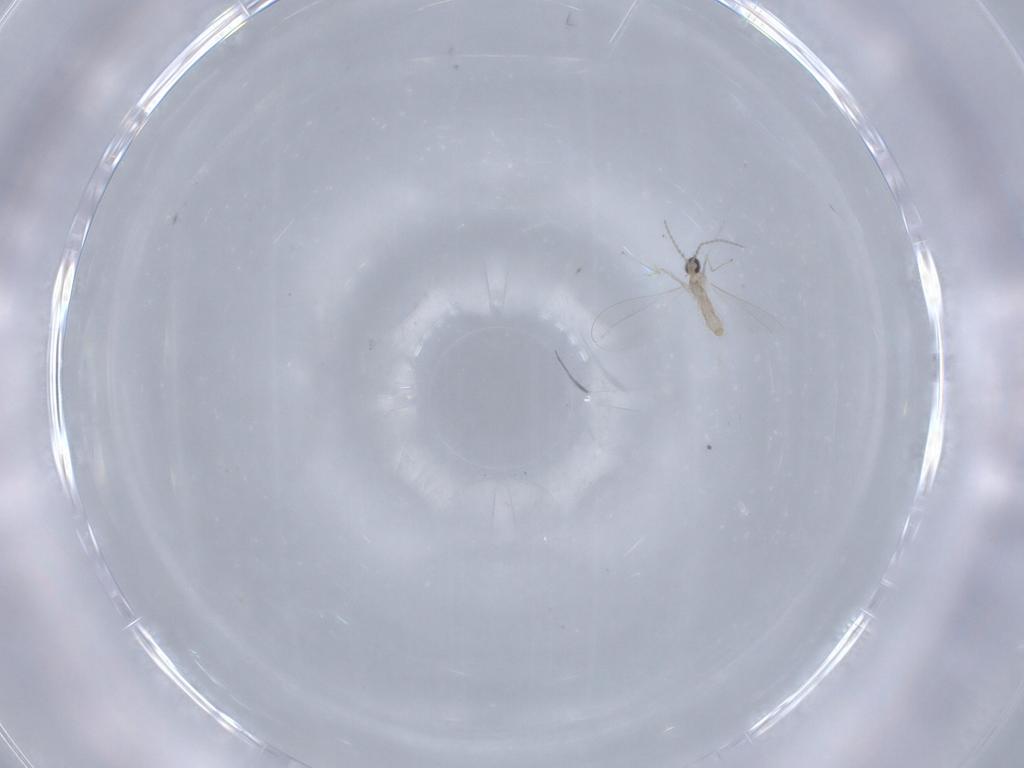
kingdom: Animalia
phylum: Arthropoda
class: Insecta
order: Diptera
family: Cecidomyiidae
